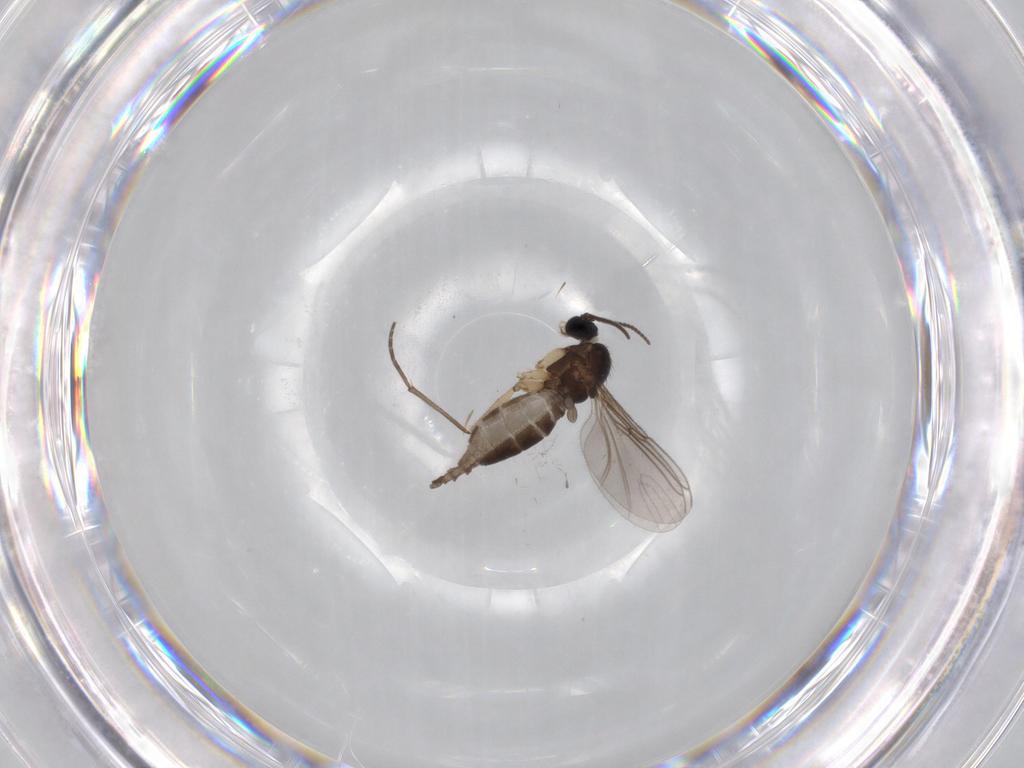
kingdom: Animalia
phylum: Arthropoda
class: Insecta
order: Diptera
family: Sciaridae
